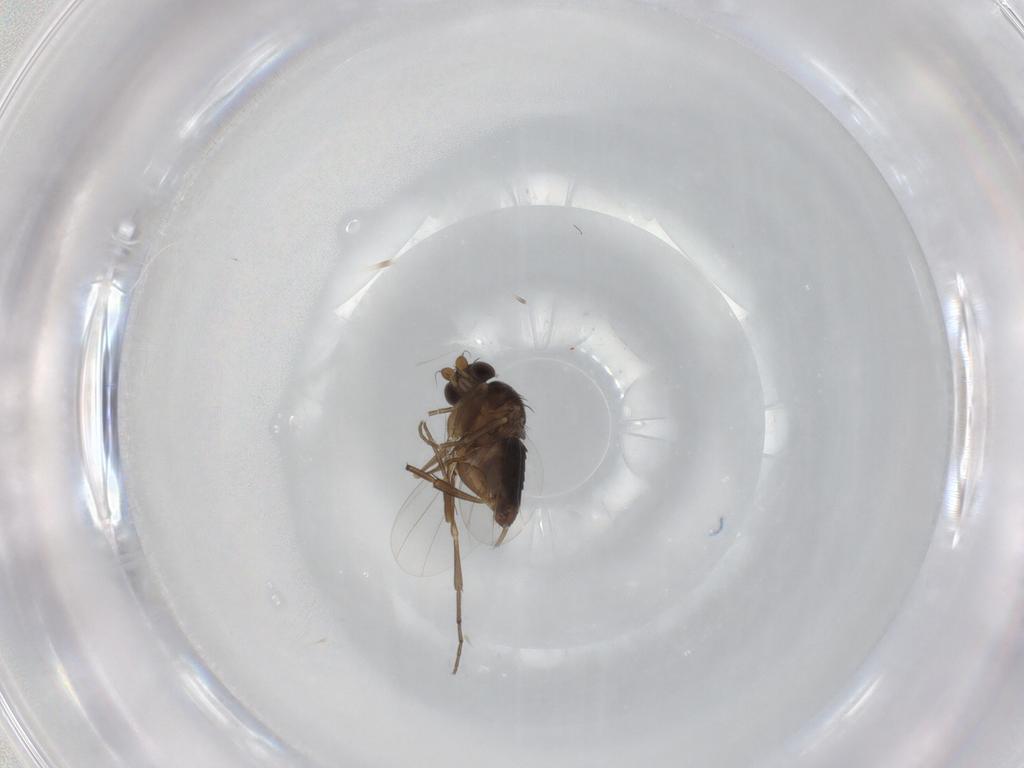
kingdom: Animalia
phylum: Arthropoda
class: Insecta
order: Diptera
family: Phoridae
